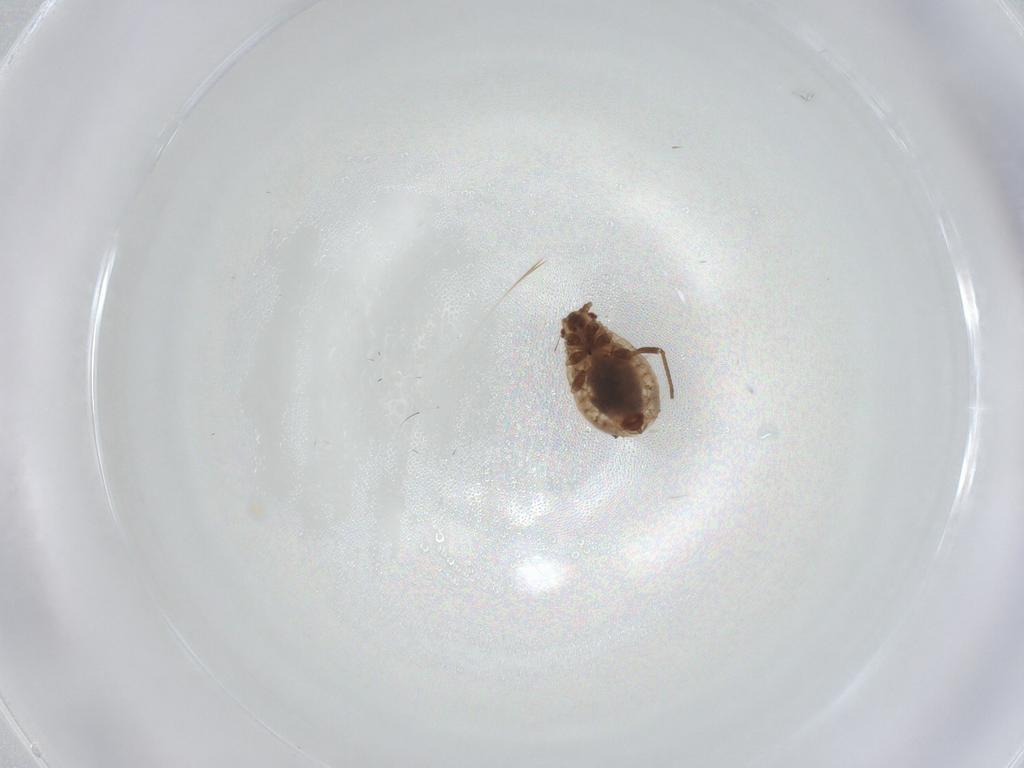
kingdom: Animalia
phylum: Arthropoda
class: Insecta
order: Hemiptera
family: Aphididae
